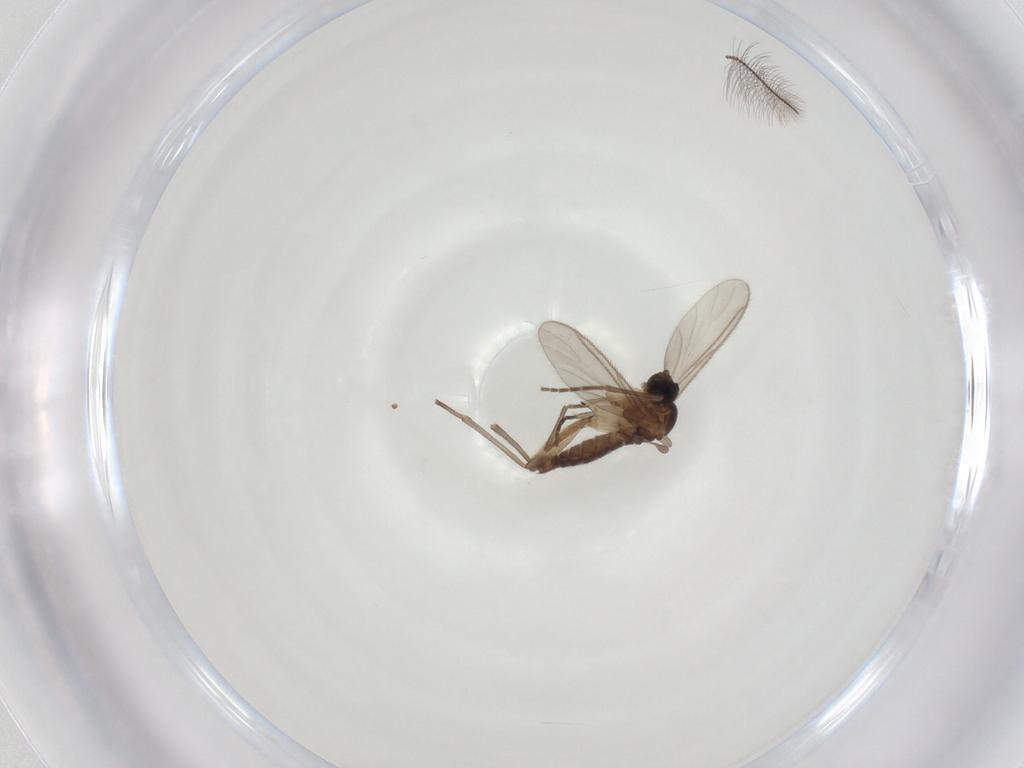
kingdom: Animalia
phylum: Arthropoda
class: Insecta
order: Diptera
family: Sciaridae
